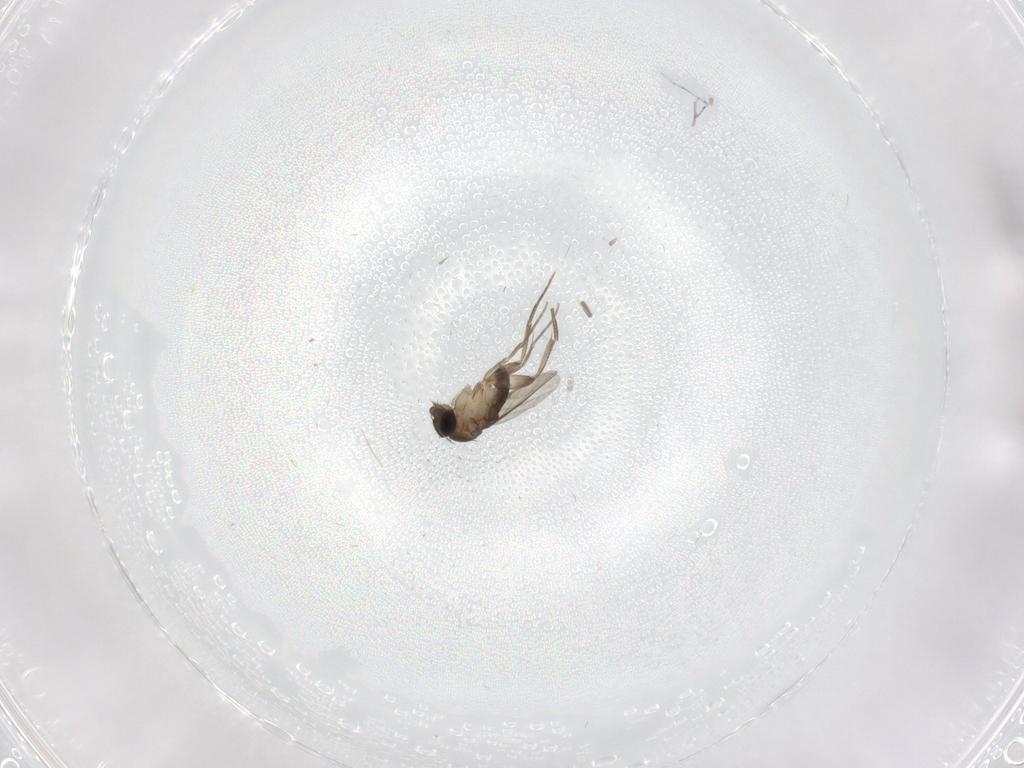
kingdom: Animalia
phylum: Arthropoda
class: Insecta
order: Diptera
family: Phoridae
